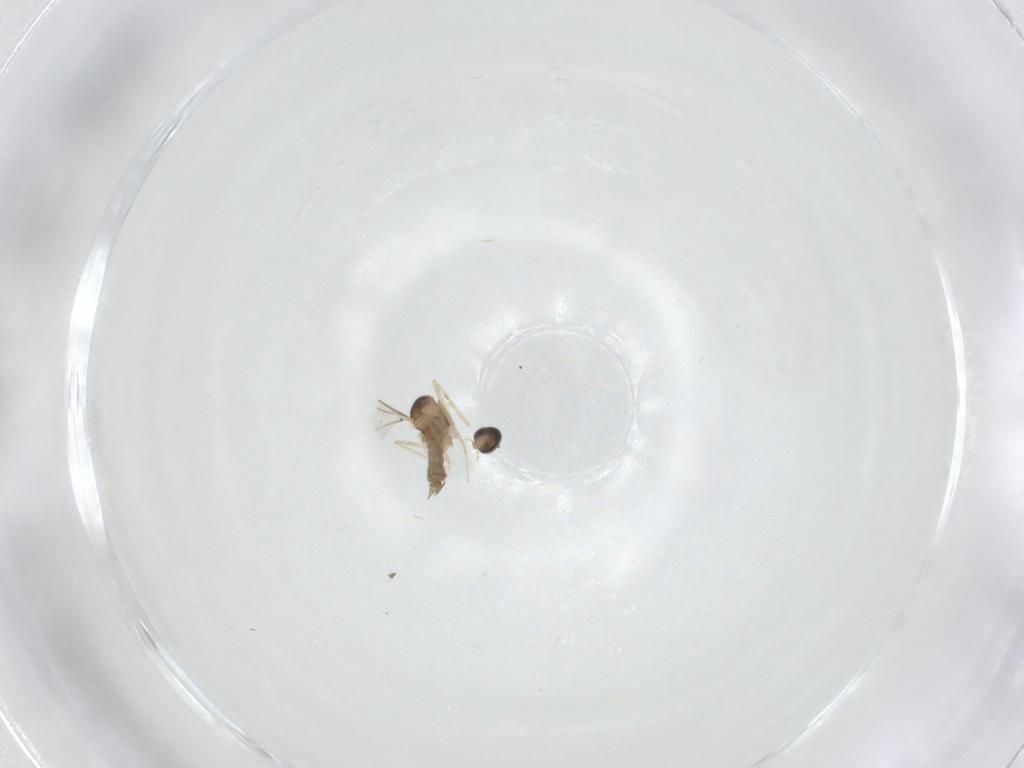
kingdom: Animalia
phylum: Arthropoda
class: Insecta
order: Diptera
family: Cecidomyiidae
